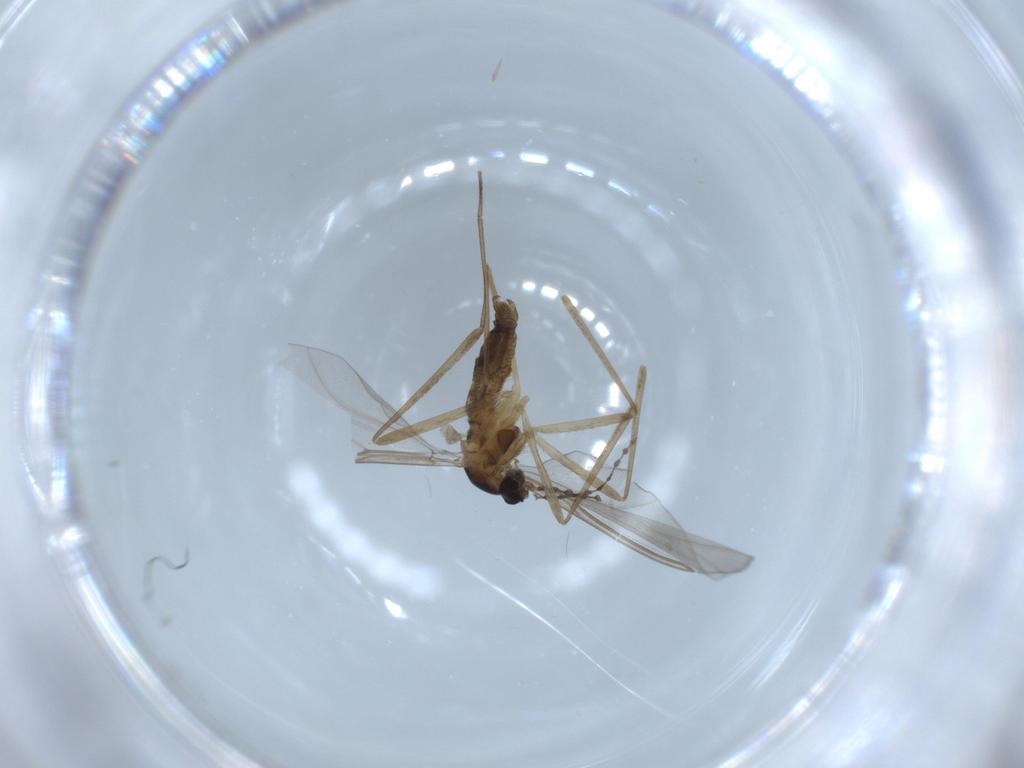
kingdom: Animalia
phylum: Arthropoda
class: Insecta
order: Diptera
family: Cecidomyiidae
